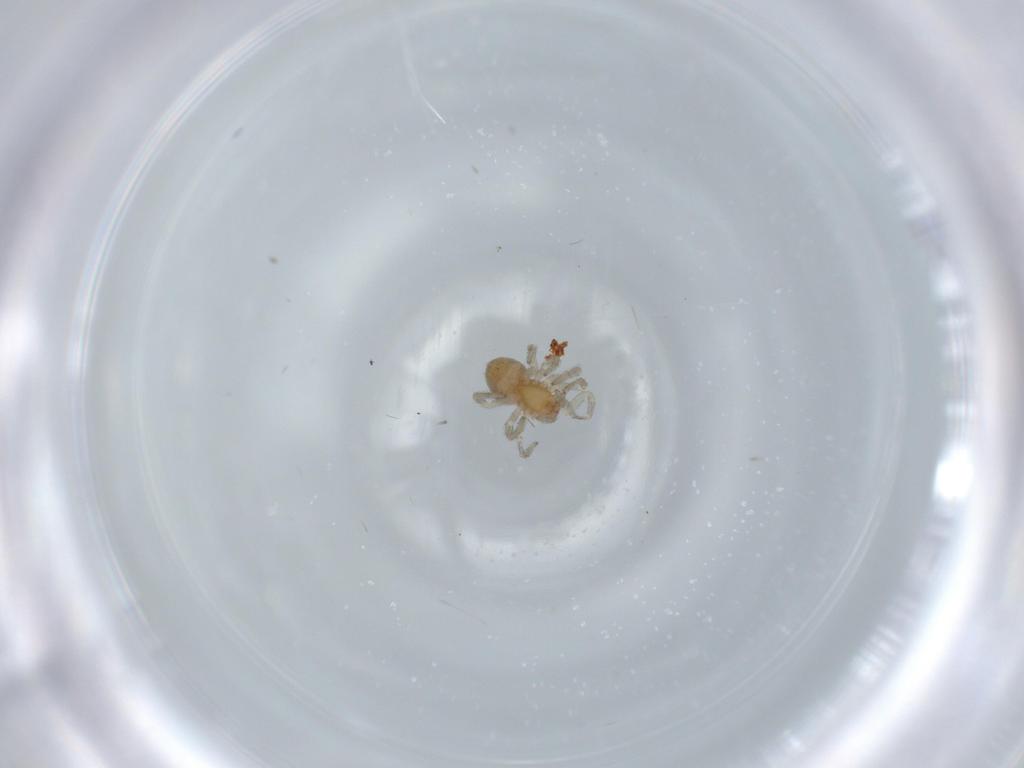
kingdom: Animalia
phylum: Arthropoda
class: Arachnida
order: Araneae
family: Dictynidae
